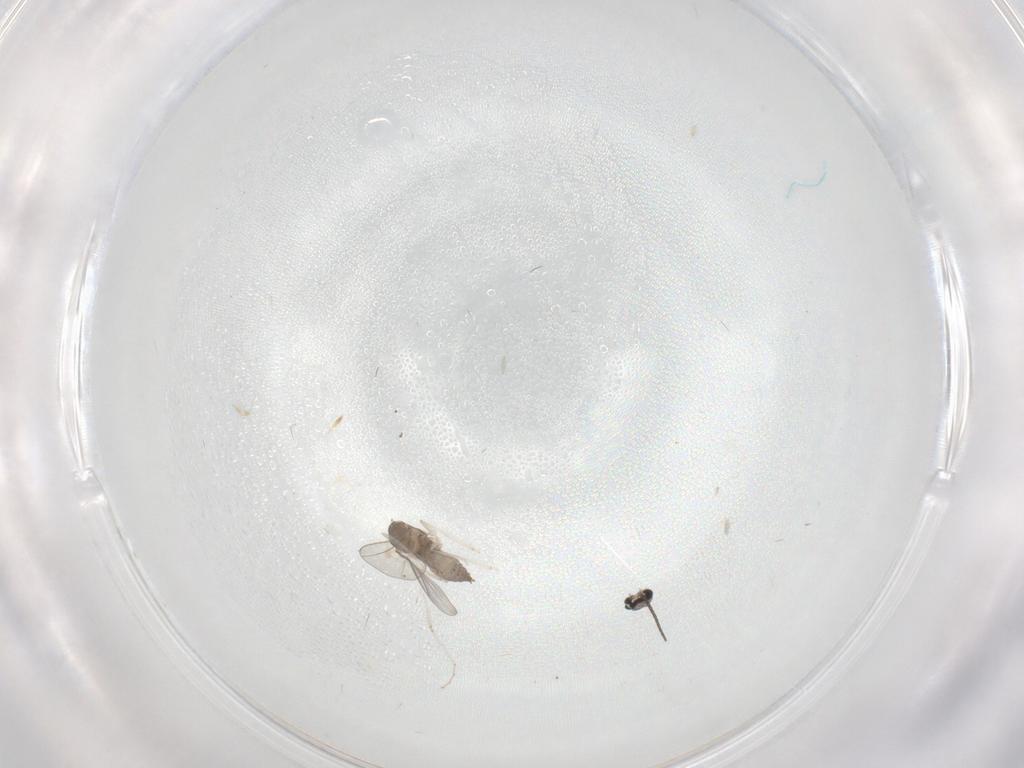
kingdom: Animalia
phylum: Arthropoda
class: Insecta
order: Diptera
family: Cecidomyiidae
